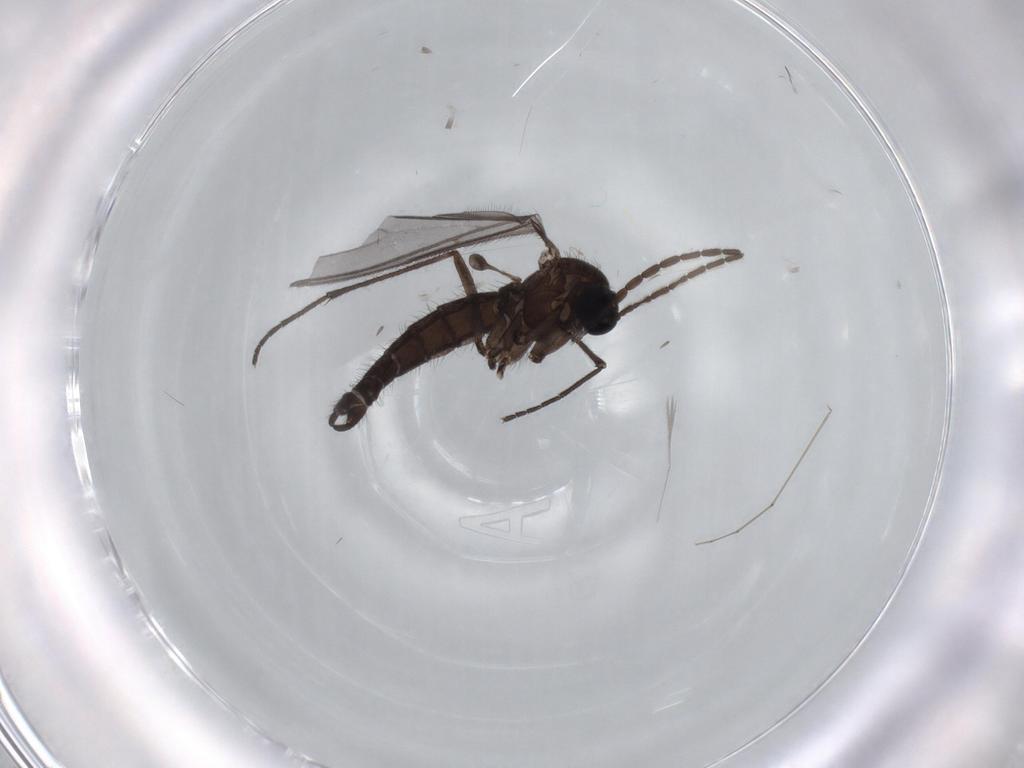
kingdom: Animalia
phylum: Arthropoda
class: Insecta
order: Diptera
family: Sciaridae
